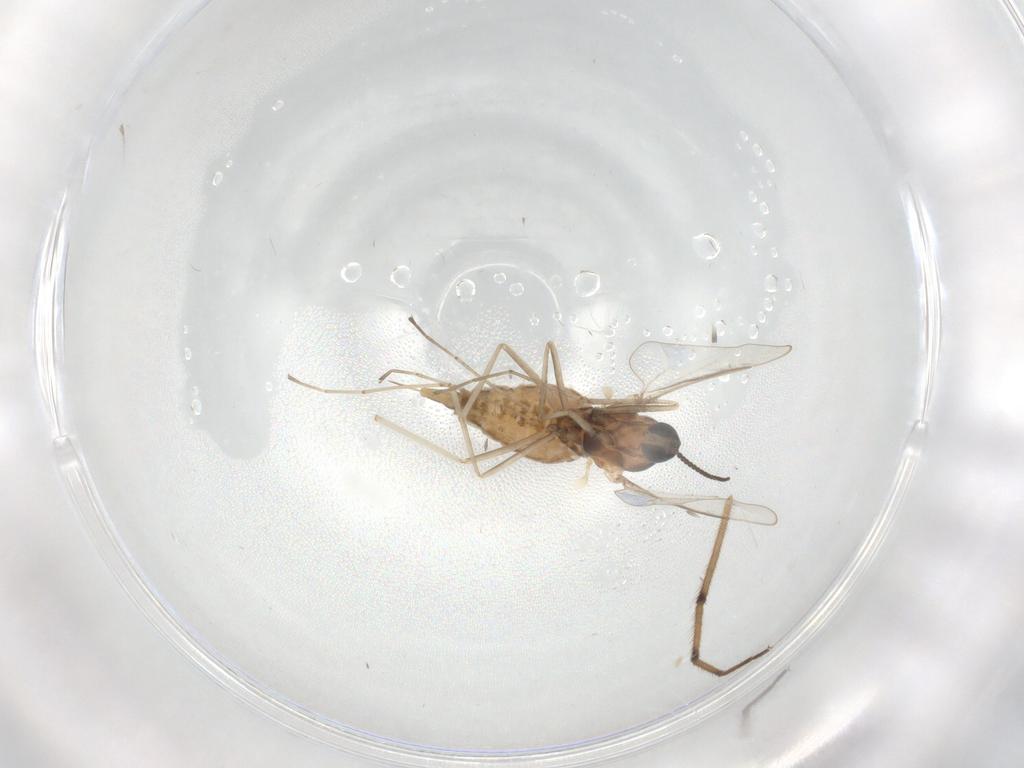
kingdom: Animalia
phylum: Arthropoda
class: Insecta
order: Diptera
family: Cecidomyiidae
